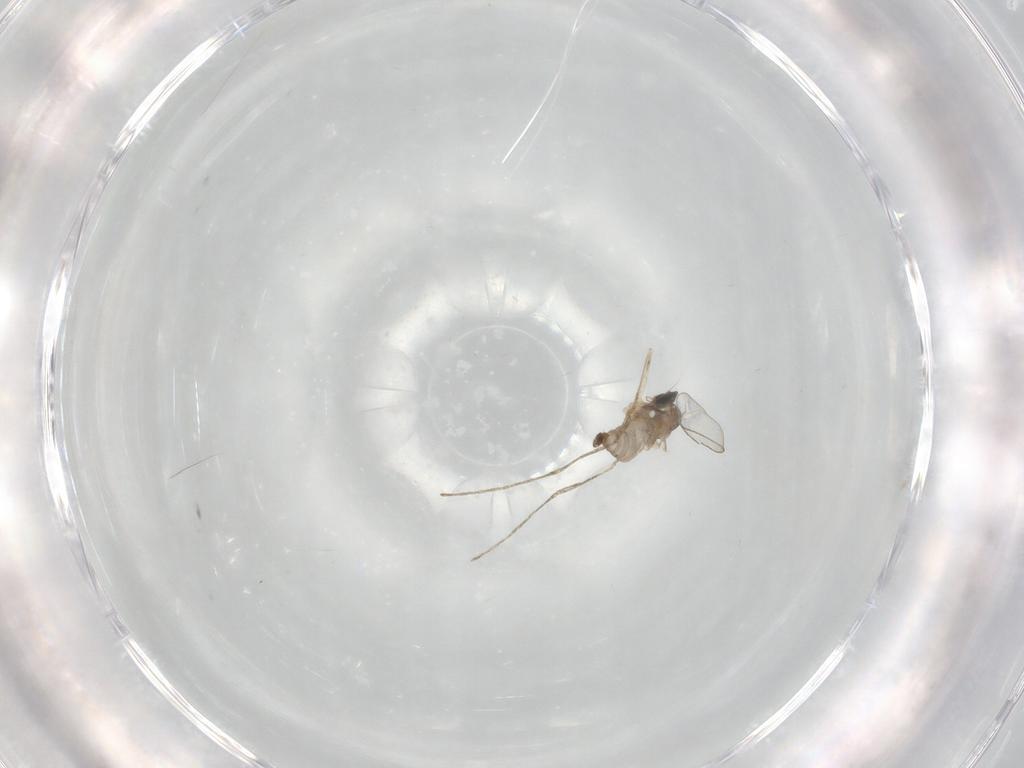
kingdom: Animalia
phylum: Arthropoda
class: Insecta
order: Diptera
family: Cecidomyiidae
